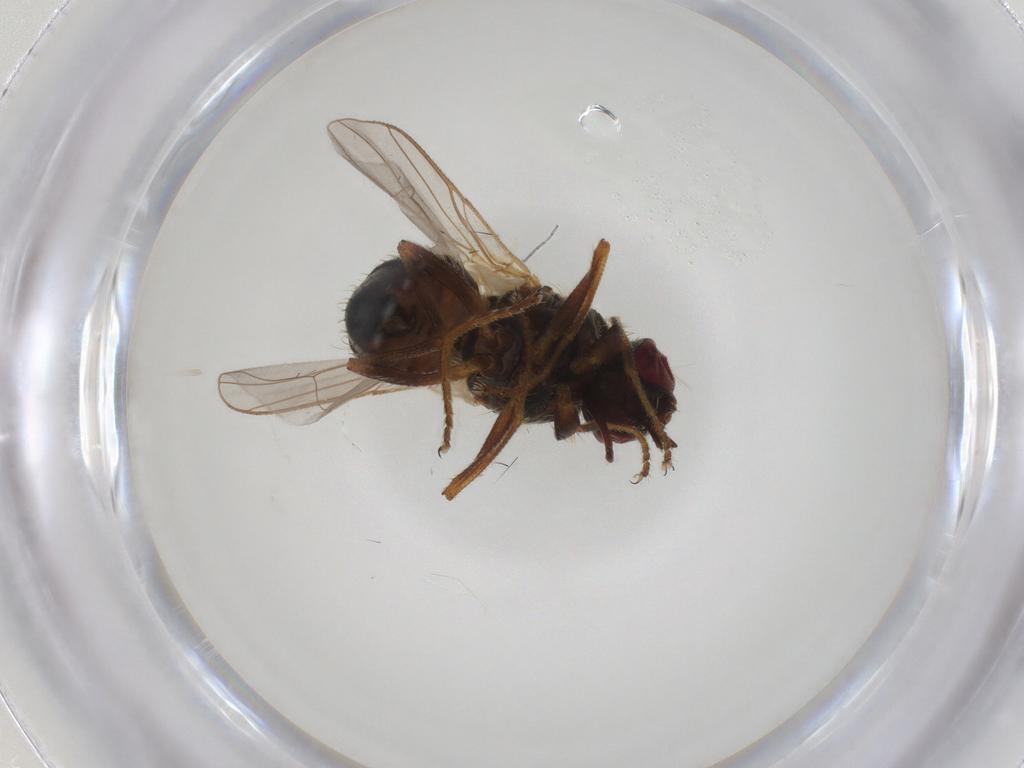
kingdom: Animalia
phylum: Arthropoda
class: Insecta
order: Diptera
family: Muscidae
